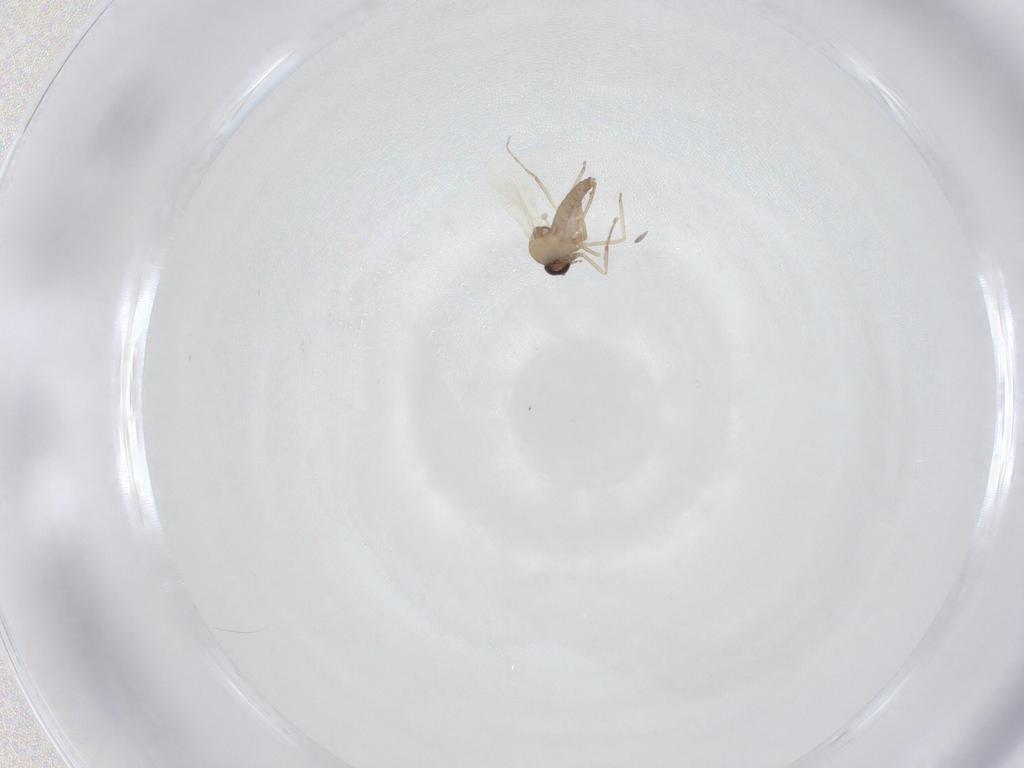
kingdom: Animalia
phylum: Arthropoda
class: Insecta
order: Diptera
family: Ceratopogonidae
